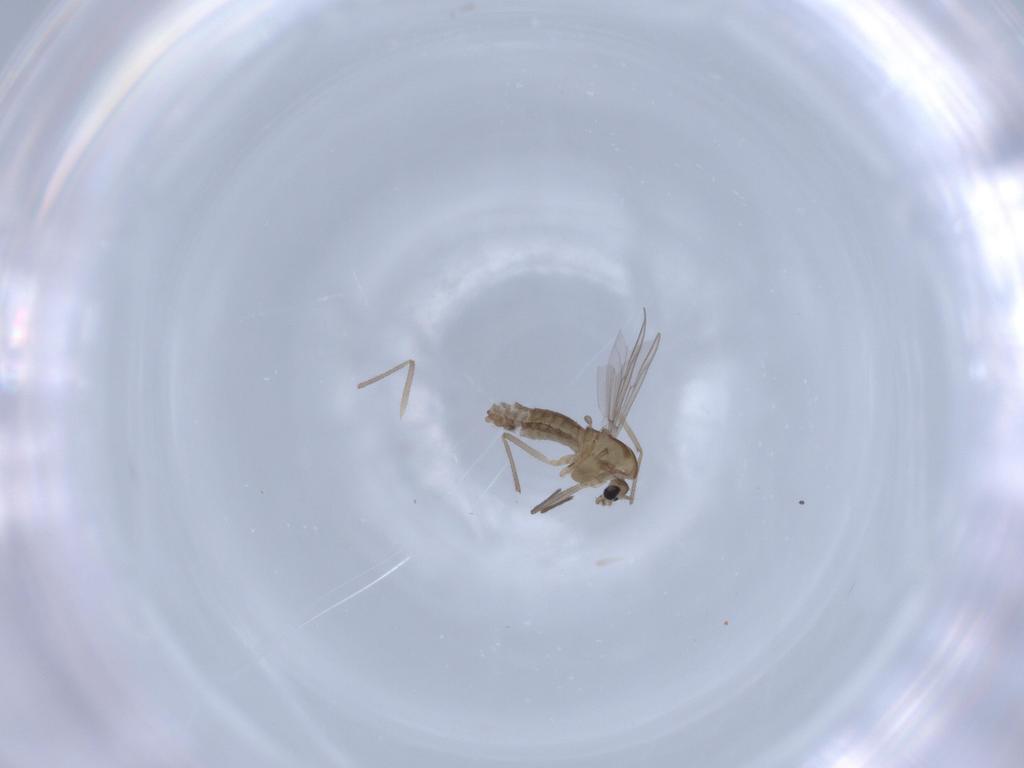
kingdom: Animalia
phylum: Arthropoda
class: Insecta
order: Diptera
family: Chironomidae
